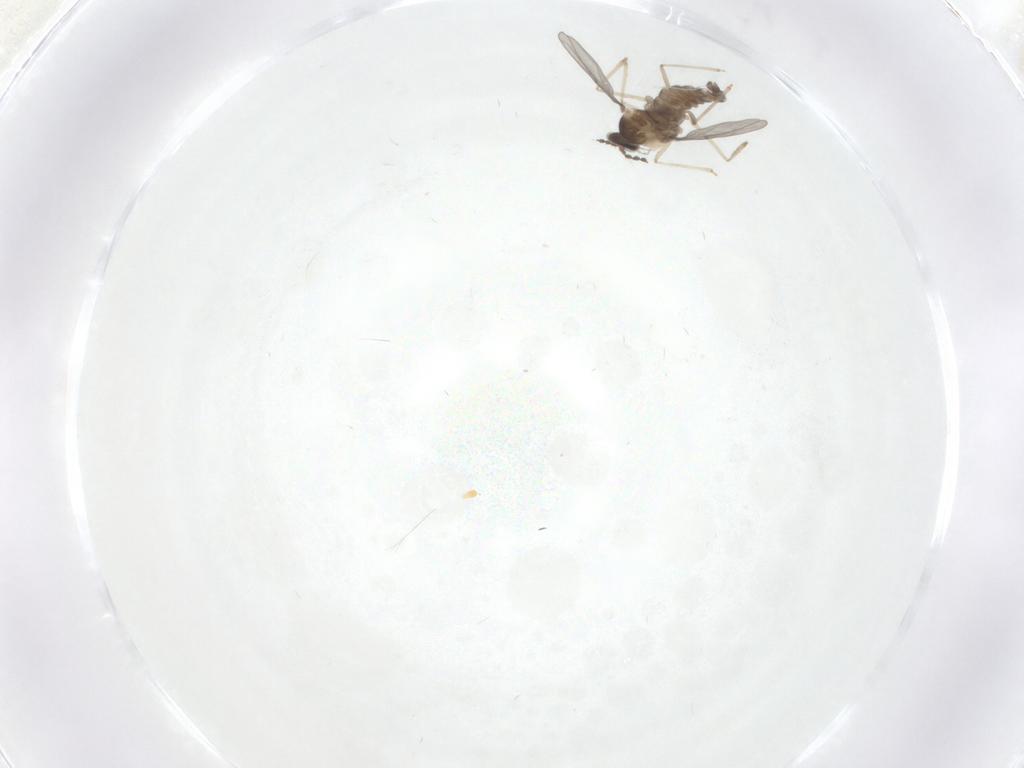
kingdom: Animalia
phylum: Arthropoda
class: Insecta
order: Diptera
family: Cecidomyiidae
